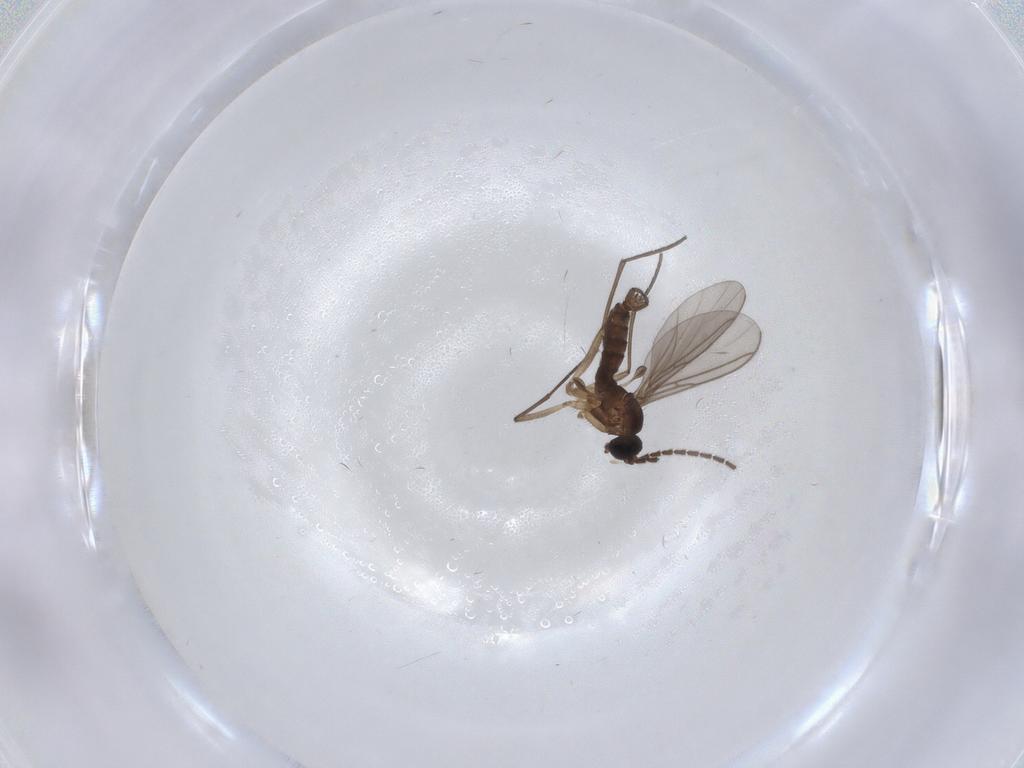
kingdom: Animalia
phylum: Arthropoda
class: Insecta
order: Diptera
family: Sciaridae
